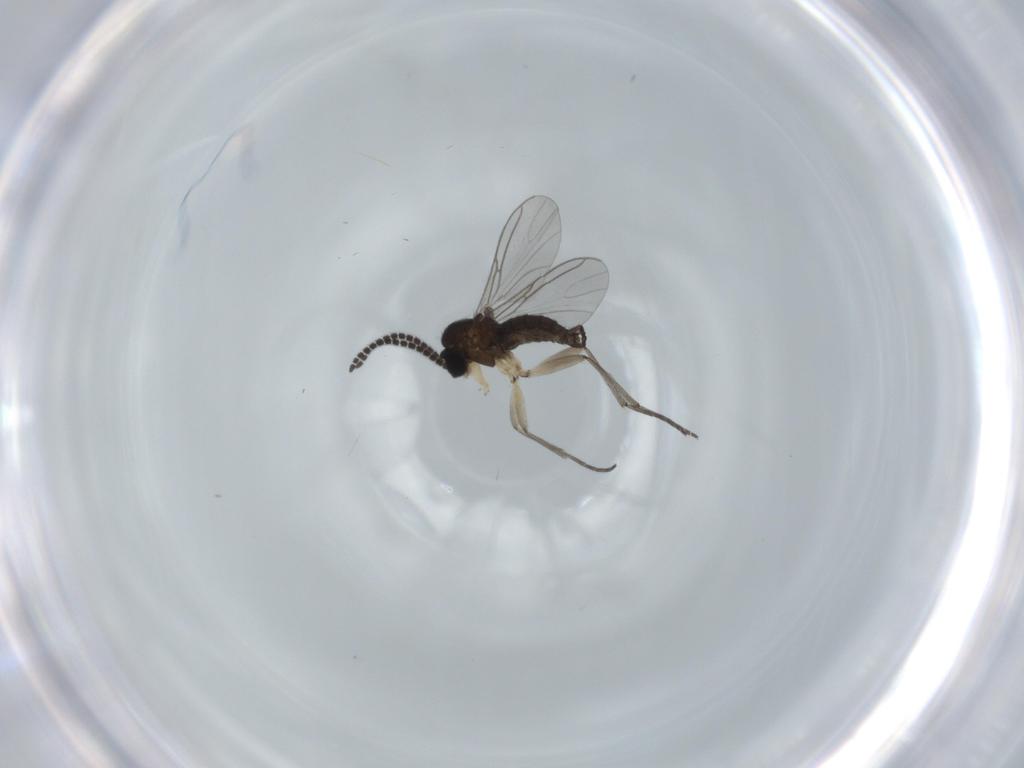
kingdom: Animalia
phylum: Arthropoda
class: Insecta
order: Diptera
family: Sciaridae
